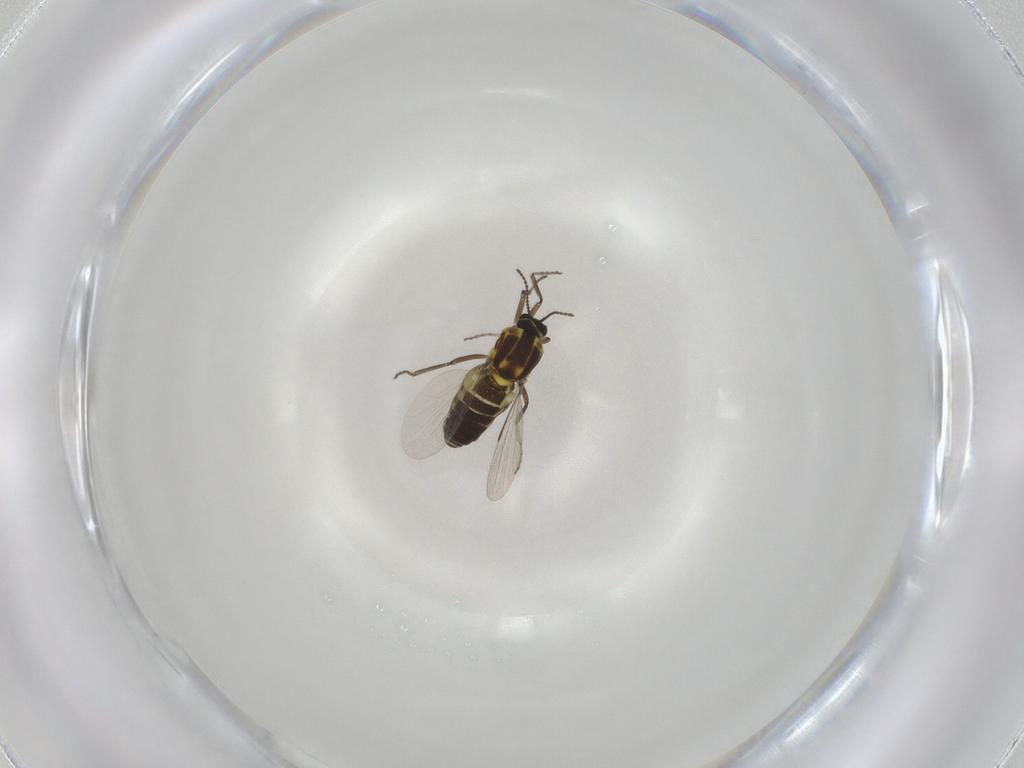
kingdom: Animalia
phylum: Arthropoda
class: Insecta
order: Diptera
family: Ceratopogonidae
